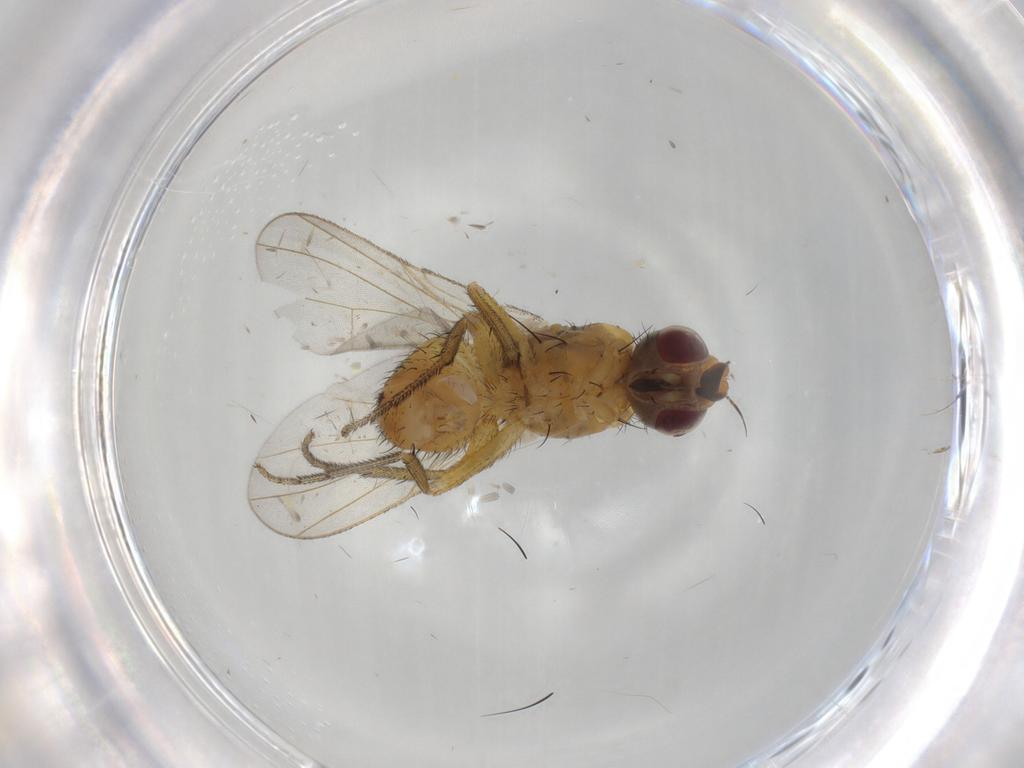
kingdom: Animalia
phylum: Arthropoda
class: Insecta
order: Diptera
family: Muscidae
